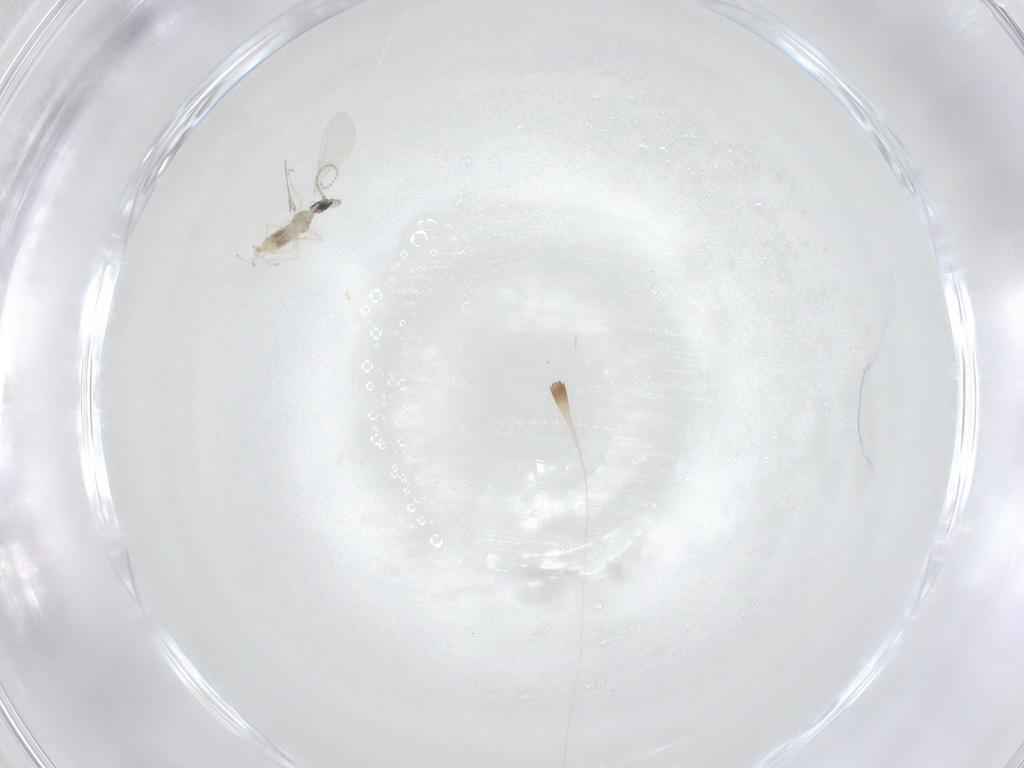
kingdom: Animalia
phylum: Arthropoda
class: Insecta
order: Diptera
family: Cecidomyiidae
